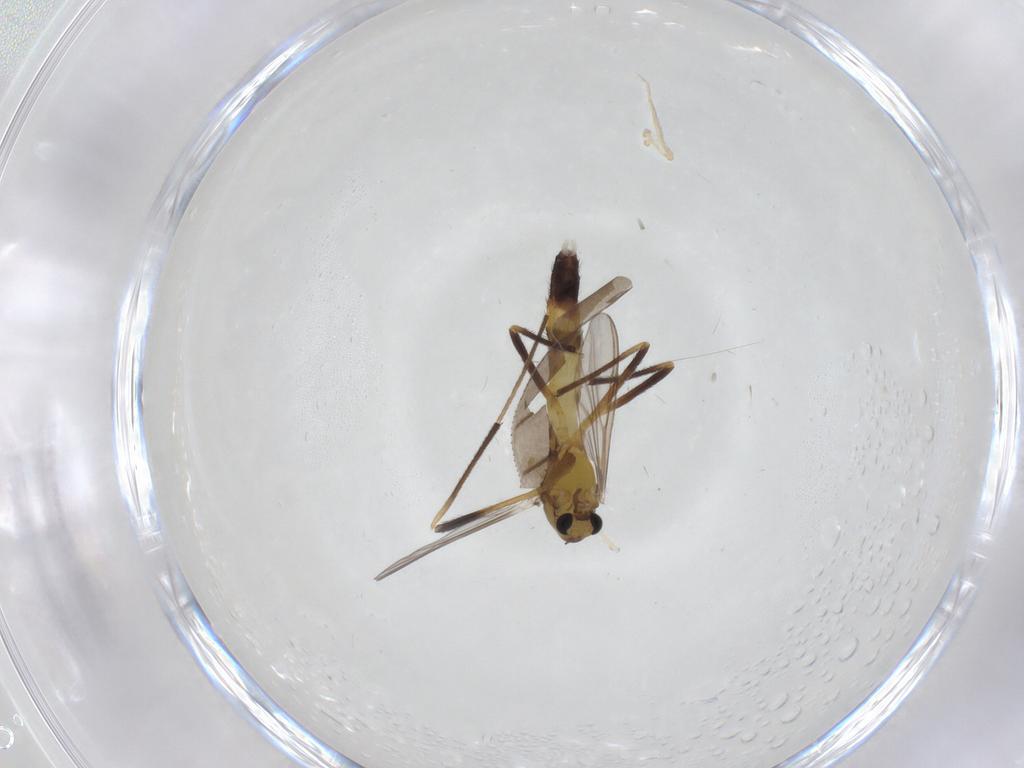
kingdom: Animalia
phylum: Arthropoda
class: Insecta
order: Diptera
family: Chironomidae
